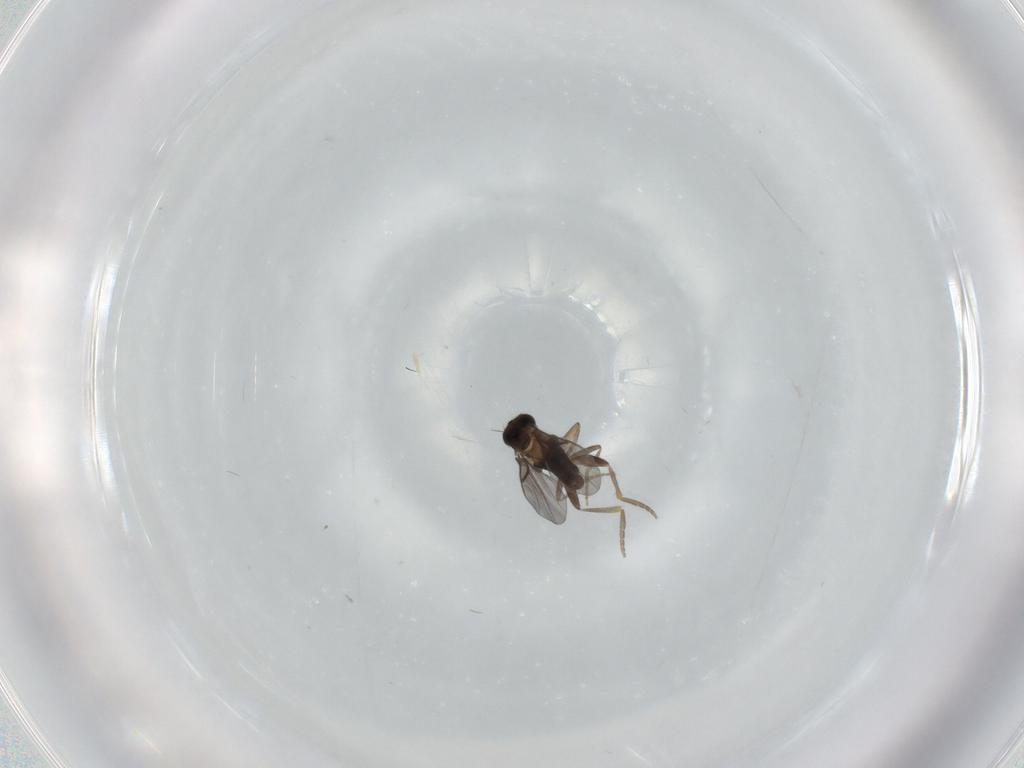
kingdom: Animalia
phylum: Arthropoda
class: Insecta
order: Diptera
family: Phoridae
